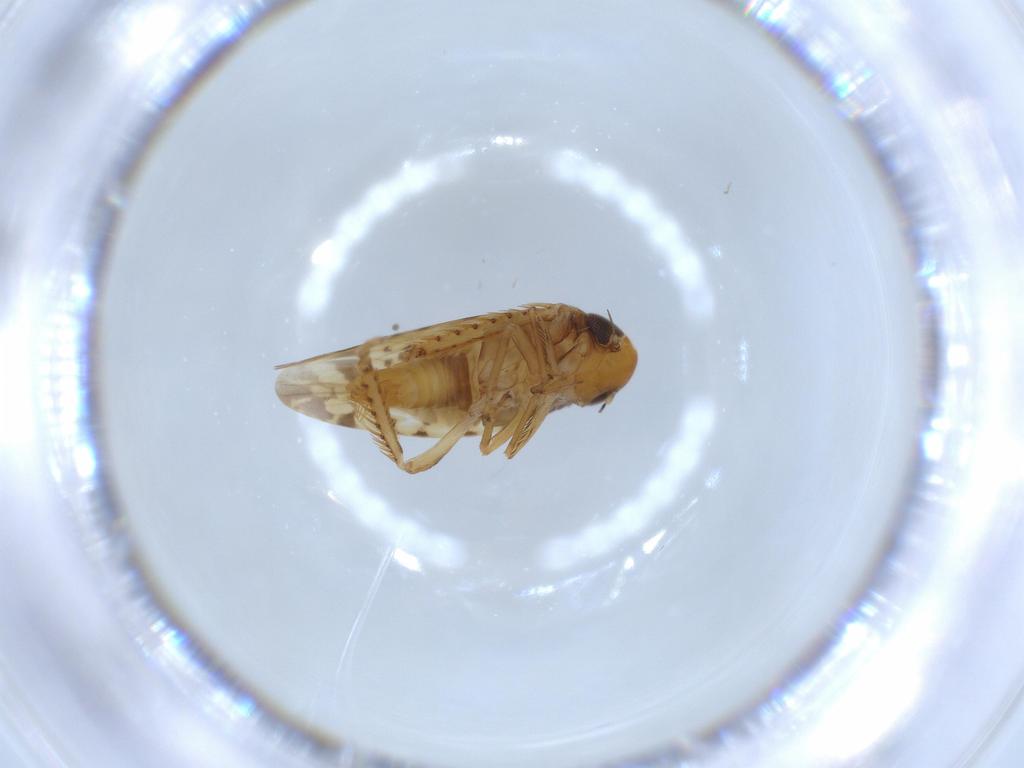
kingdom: Animalia
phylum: Arthropoda
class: Insecta
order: Hemiptera
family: Cicadellidae
